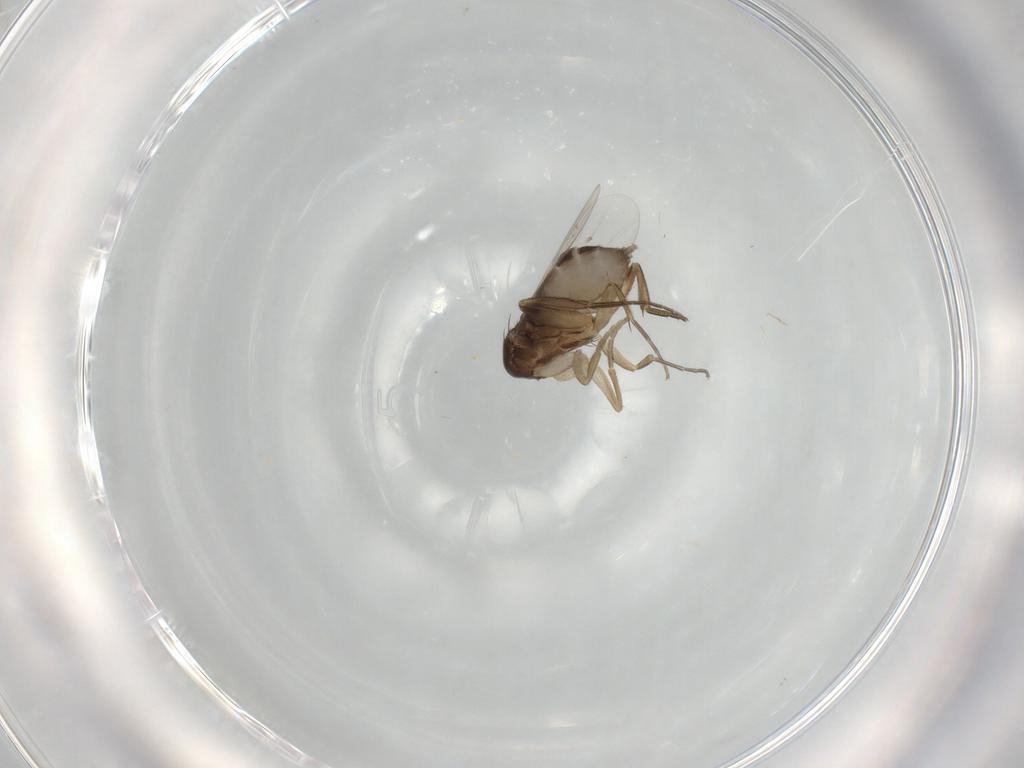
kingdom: Animalia
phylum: Arthropoda
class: Insecta
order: Diptera
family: Phoridae
